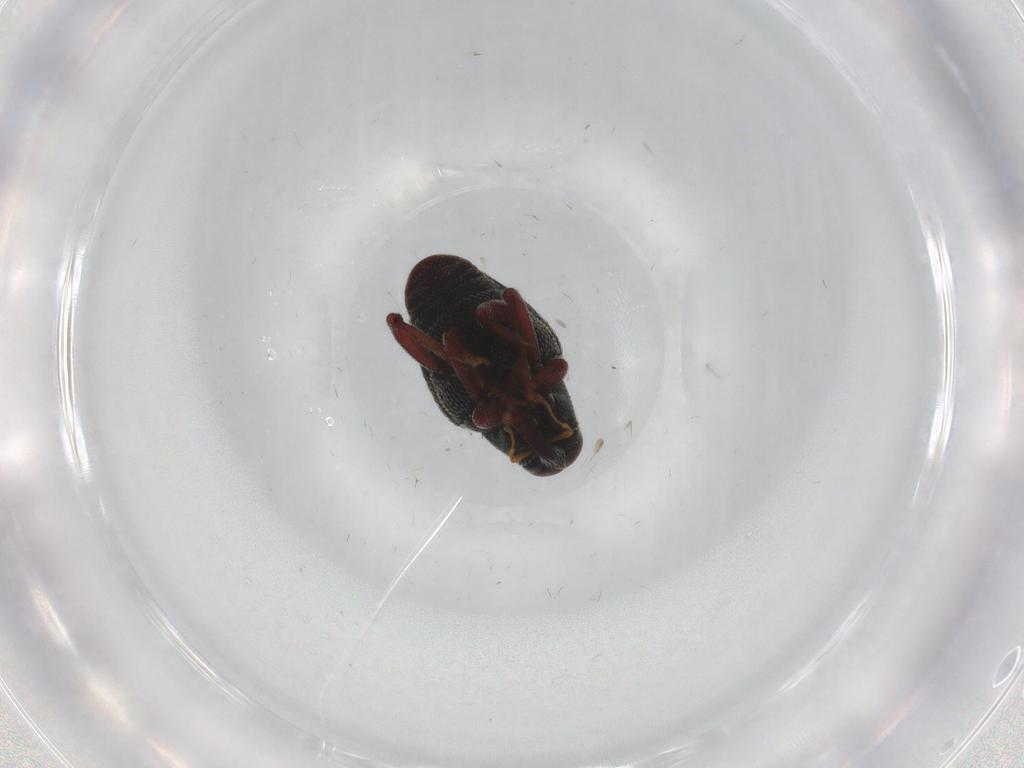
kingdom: Animalia
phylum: Arthropoda
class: Insecta
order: Coleoptera
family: Curculionidae
